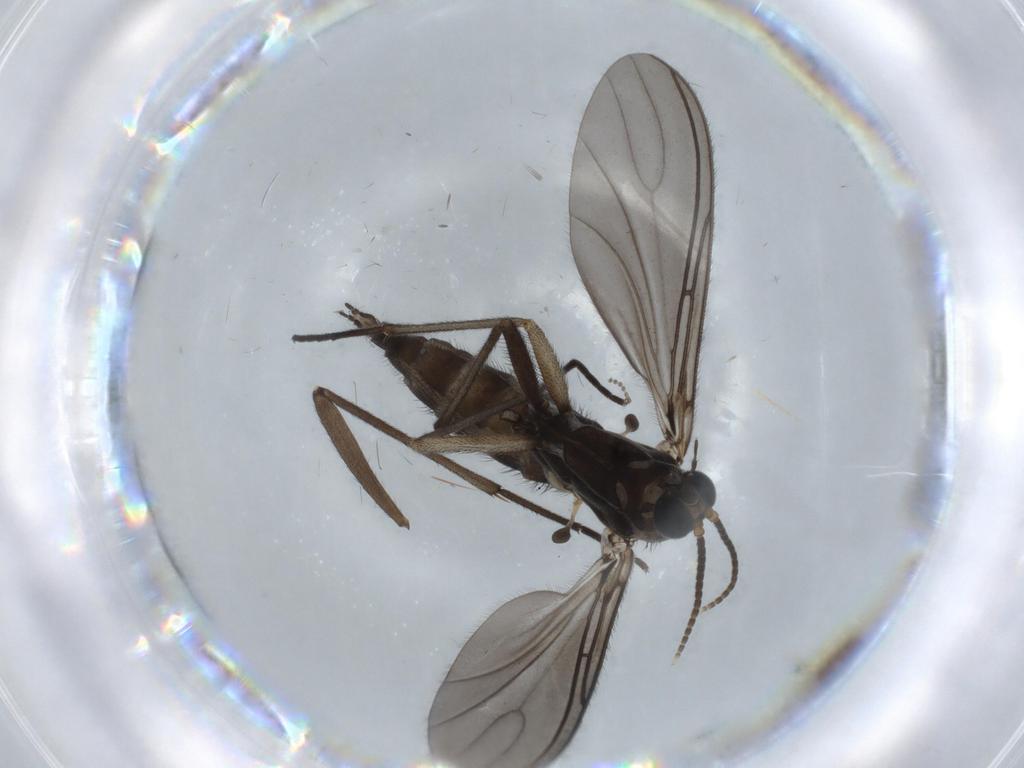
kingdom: Animalia
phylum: Arthropoda
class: Insecta
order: Diptera
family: Sciaridae
